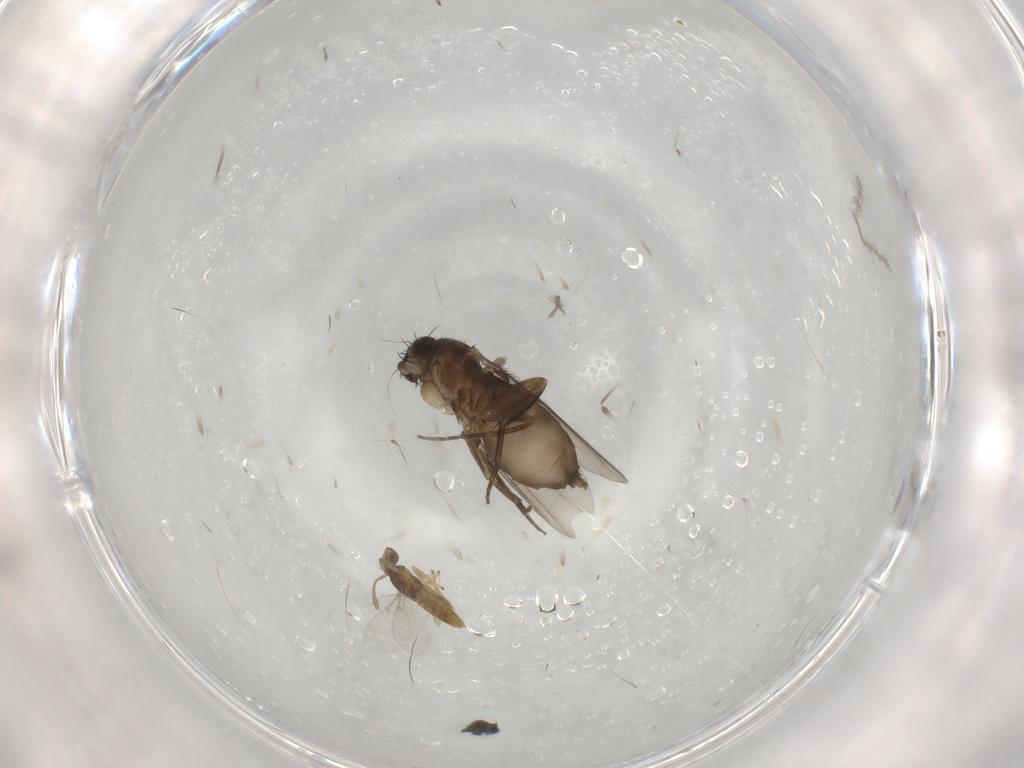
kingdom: Animalia
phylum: Arthropoda
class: Insecta
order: Diptera
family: Phoridae
